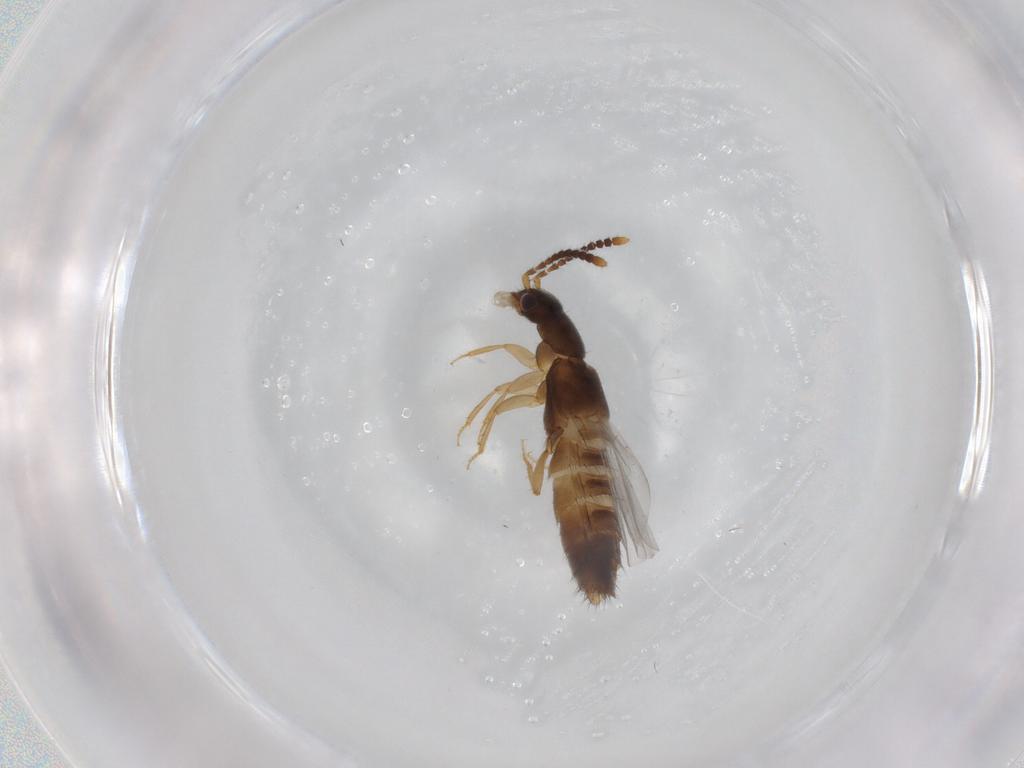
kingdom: Animalia
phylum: Arthropoda
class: Insecta
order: Coleoptera
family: Staphylinidae
